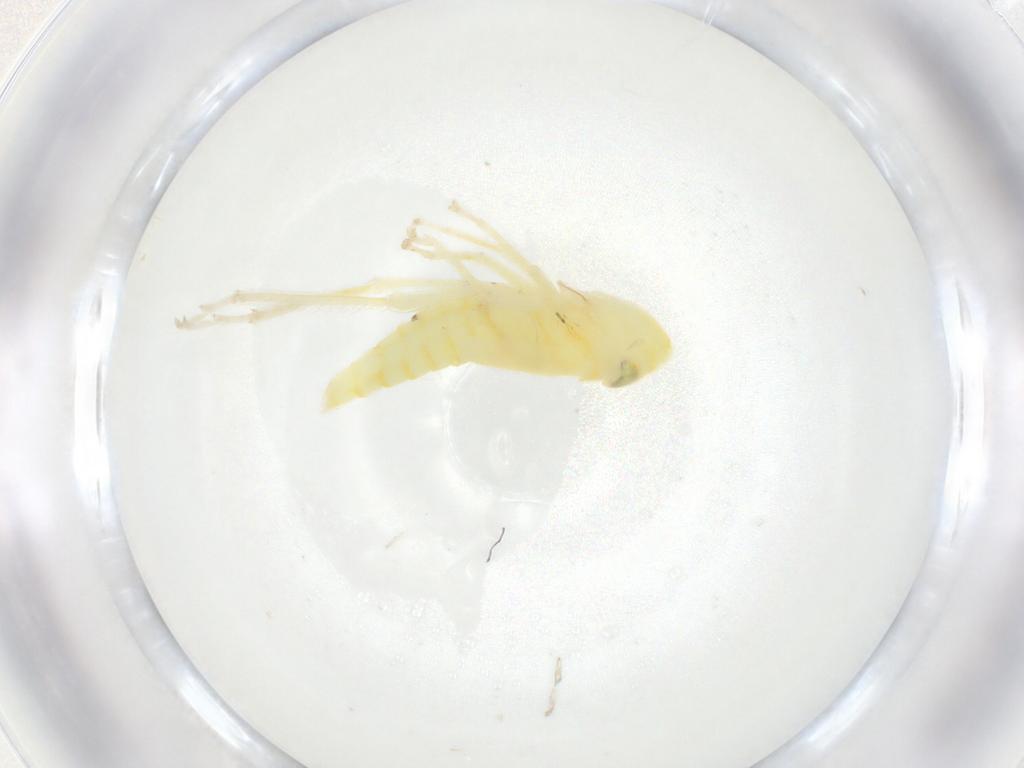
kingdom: Animalia
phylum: Arthropoda
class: Insecta
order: Hemiptera
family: Cicadellidae
